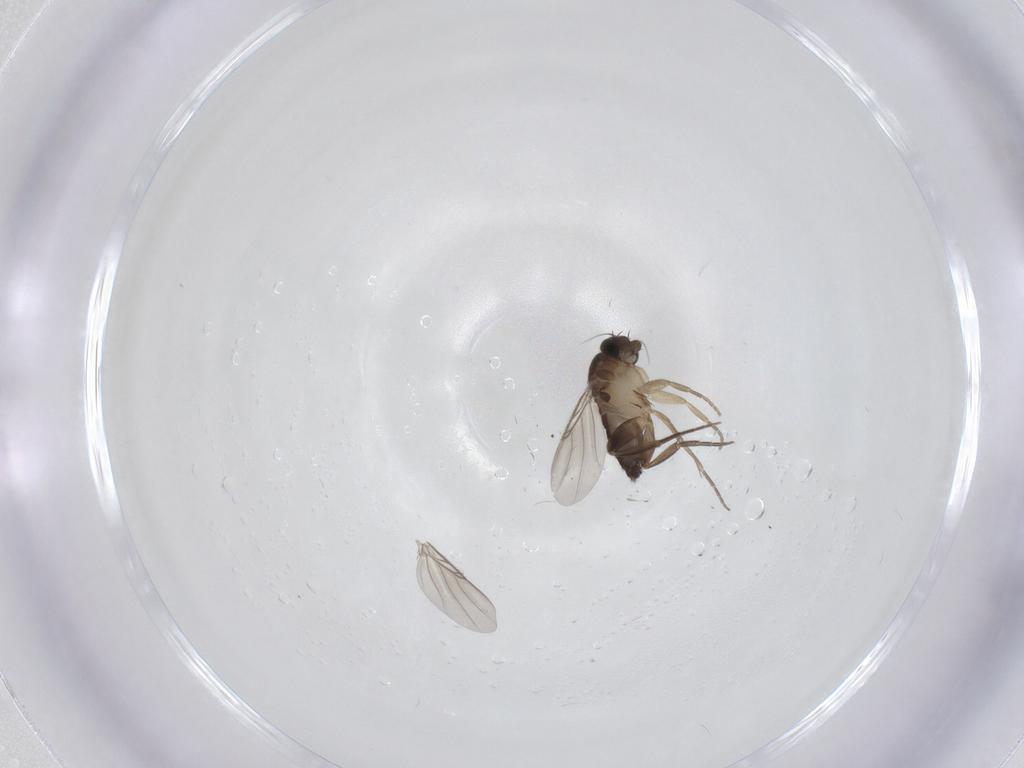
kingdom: Animalia
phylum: Arthropoda
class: Insecta
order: Diptera
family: Phoridae
